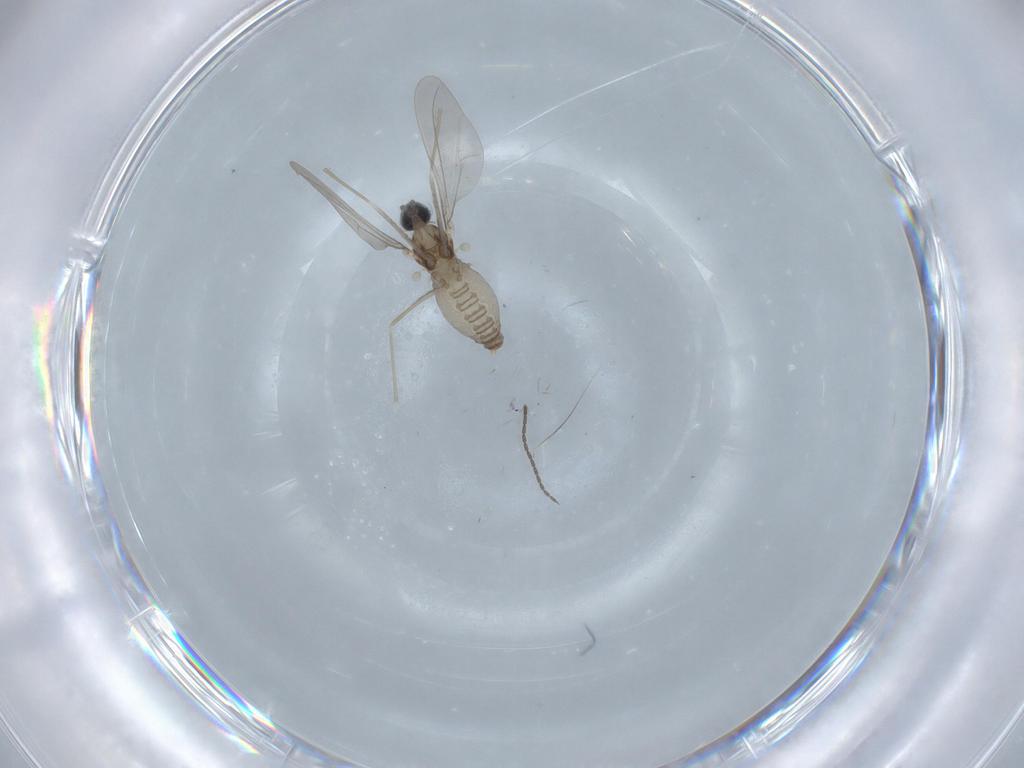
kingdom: Animalia
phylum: Arthropoda
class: Insecta
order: Diptera
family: Cecidomyiidae
